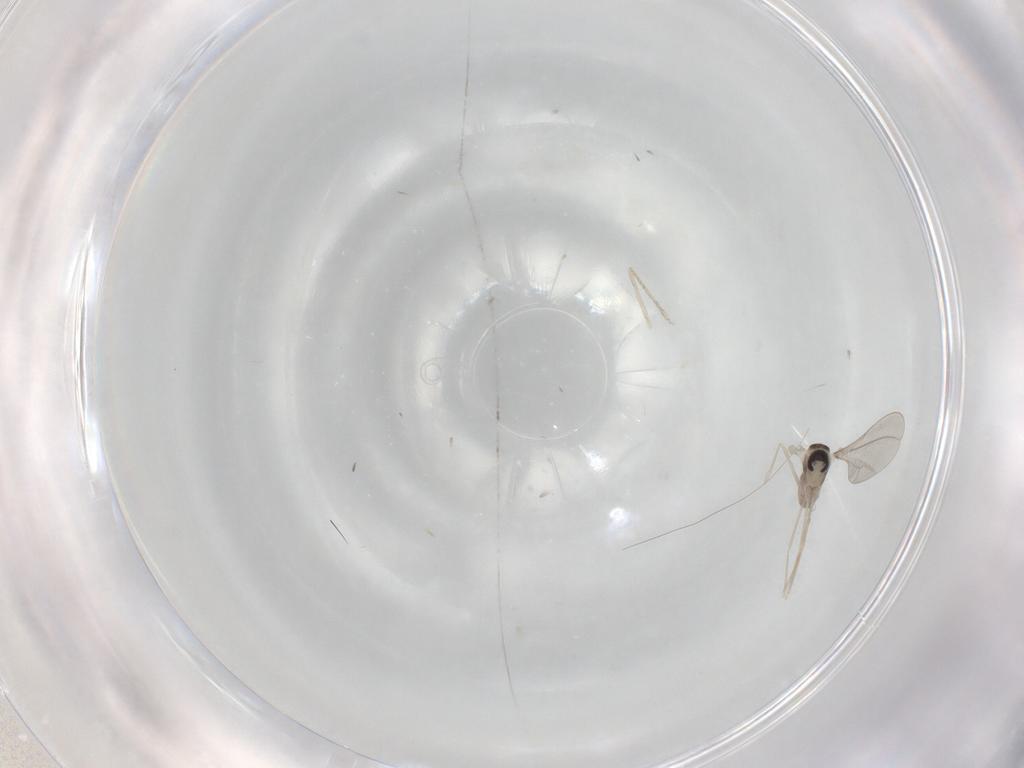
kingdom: Animalia
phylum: Arthropoda
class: Insecta
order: Diptera
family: Cecidomyiidae
